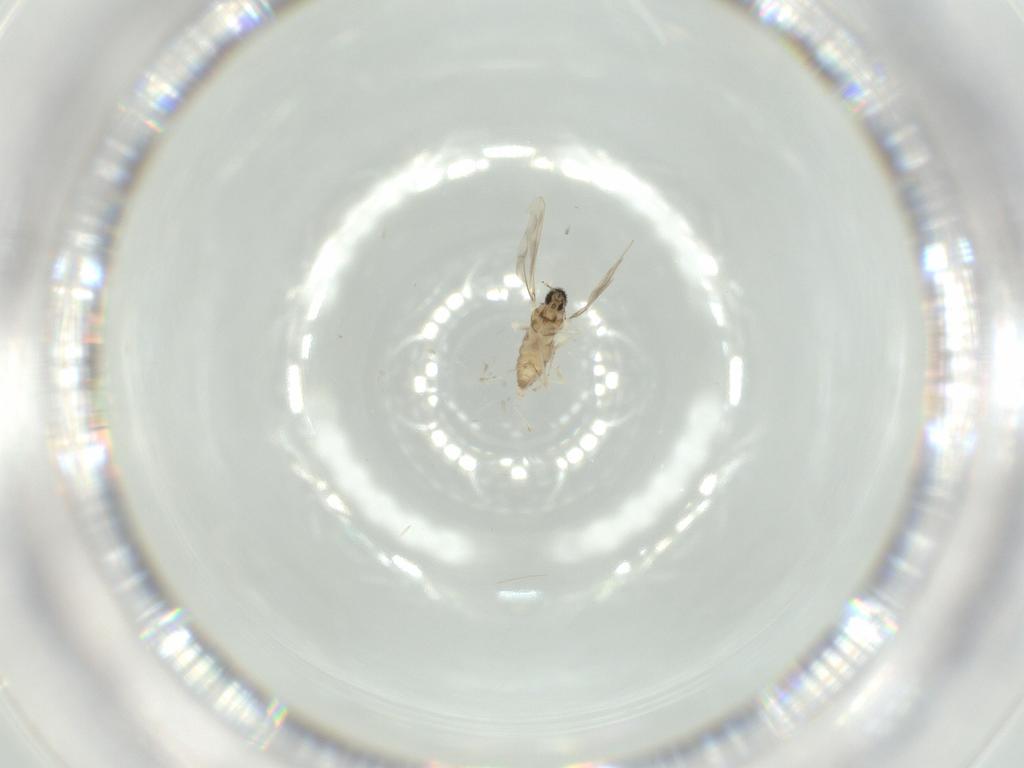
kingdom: Animalia
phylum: Arthropoda
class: Insecta
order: Diptera
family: Cecidomyiidae
